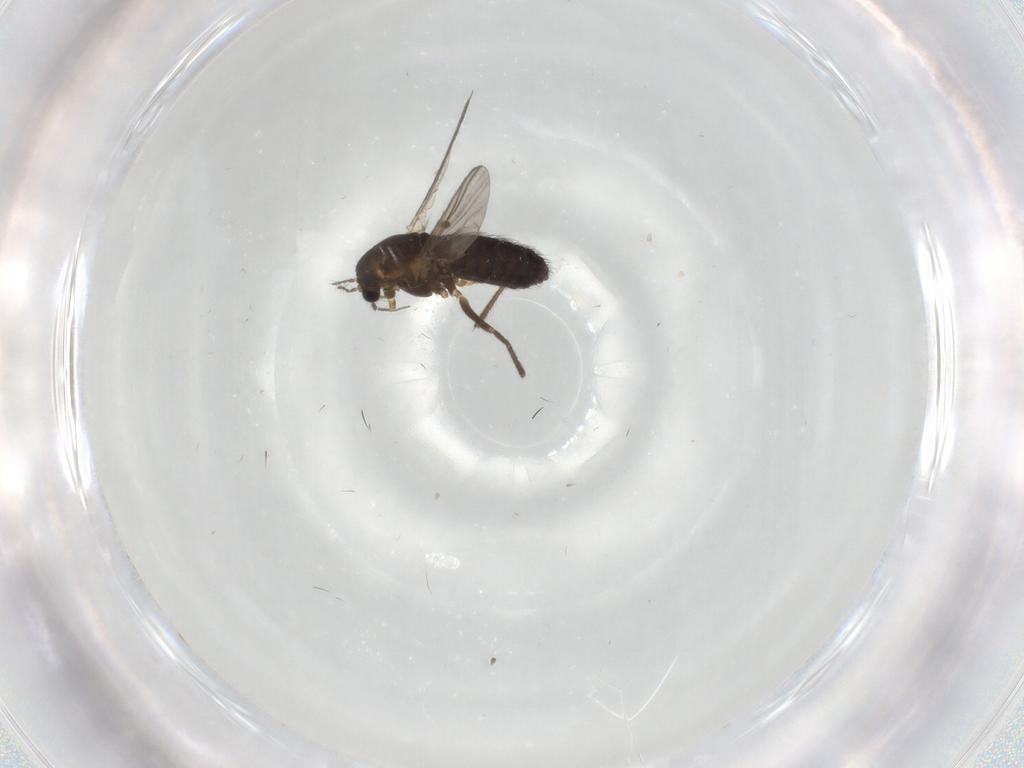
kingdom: Animalia
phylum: Arthropoda
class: Insecta
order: Diptera
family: Chironomidae
